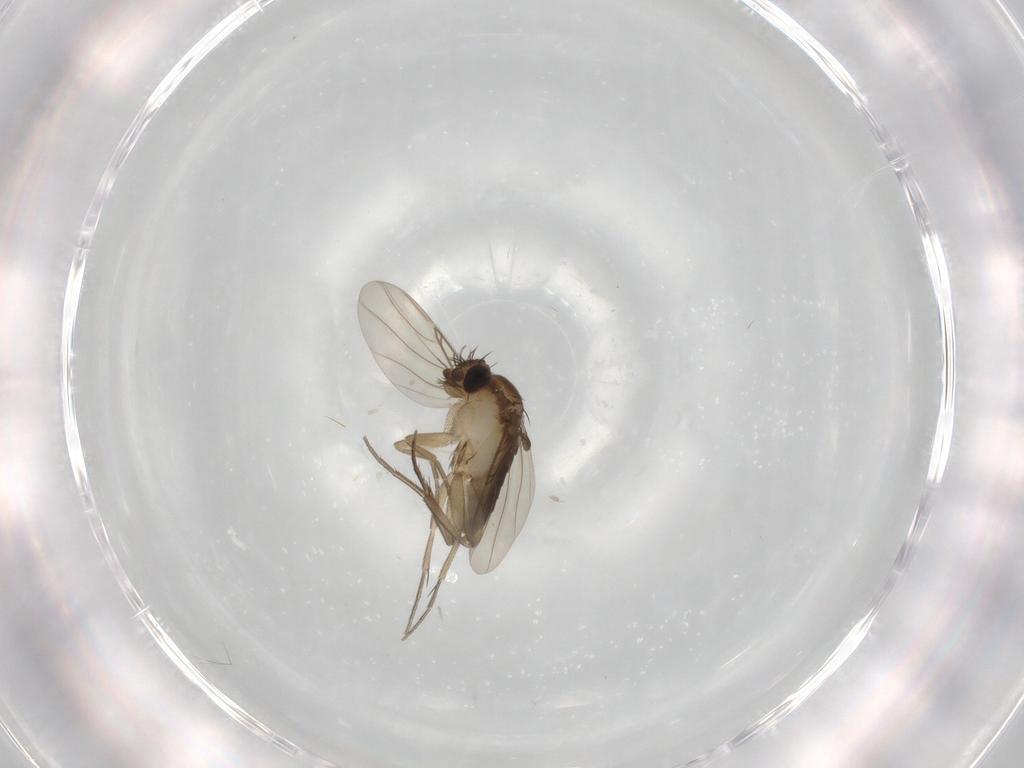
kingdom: Animalia
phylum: Arthropoda
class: Insecta
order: Diptera
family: Phoridae
